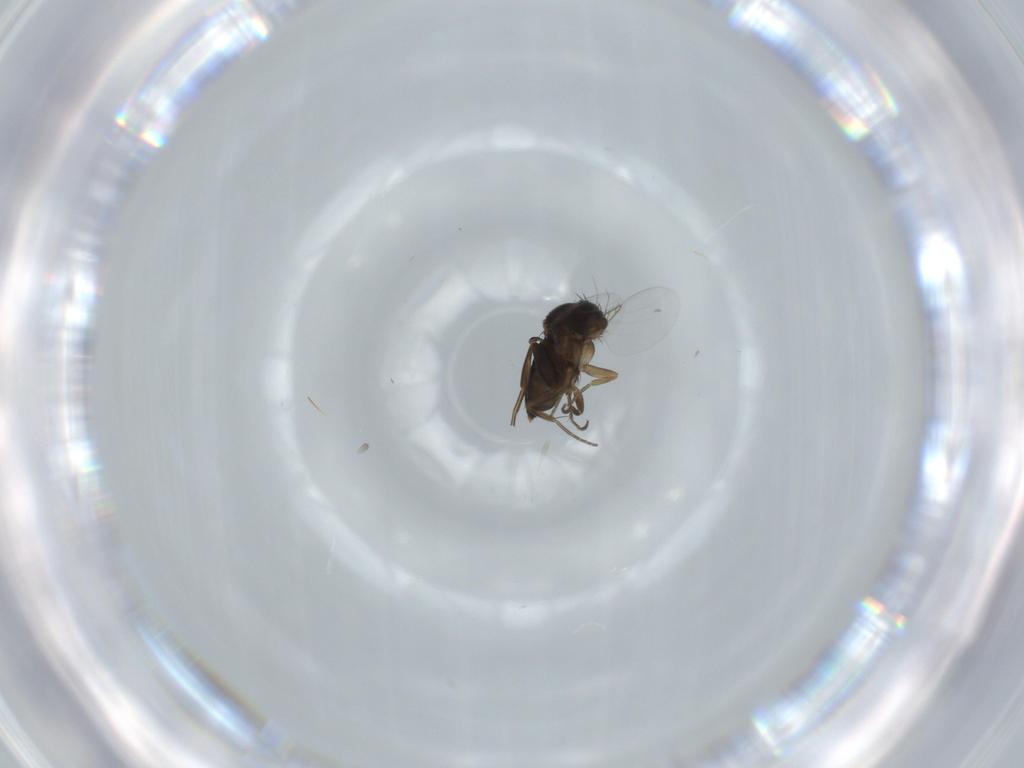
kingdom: Animalia
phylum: Arthropoda
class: Insecta
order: Diptera
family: Phoridae
